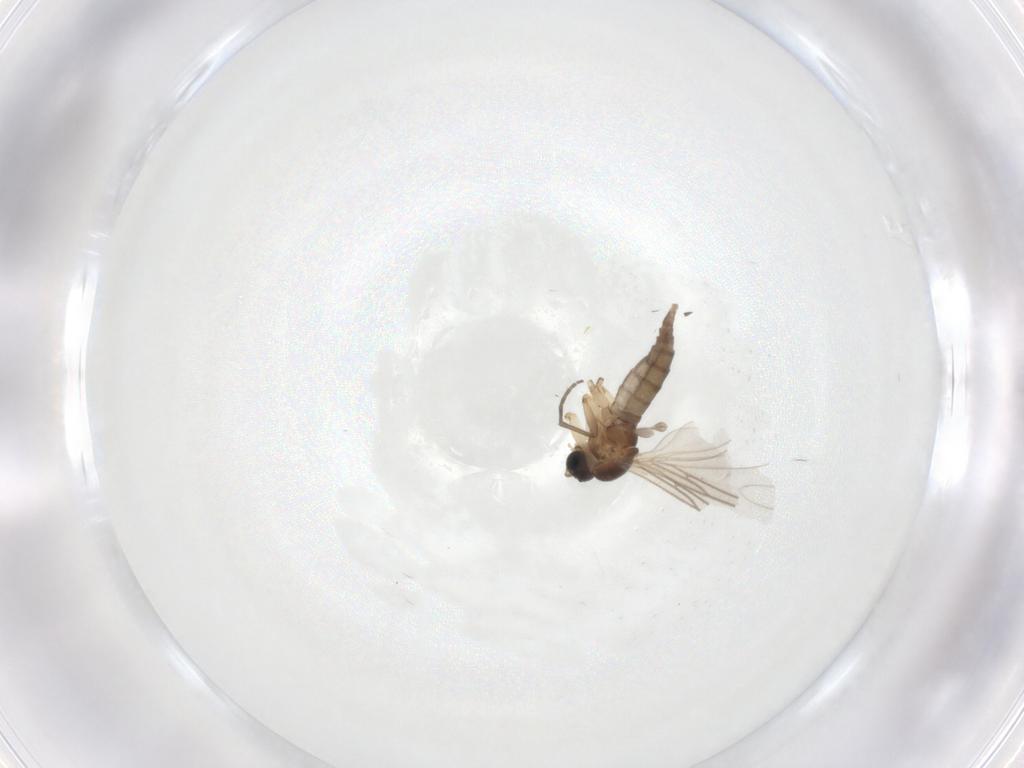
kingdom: Animalia
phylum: Arthropoda
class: Insecta
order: Diptera
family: Sciaridae
